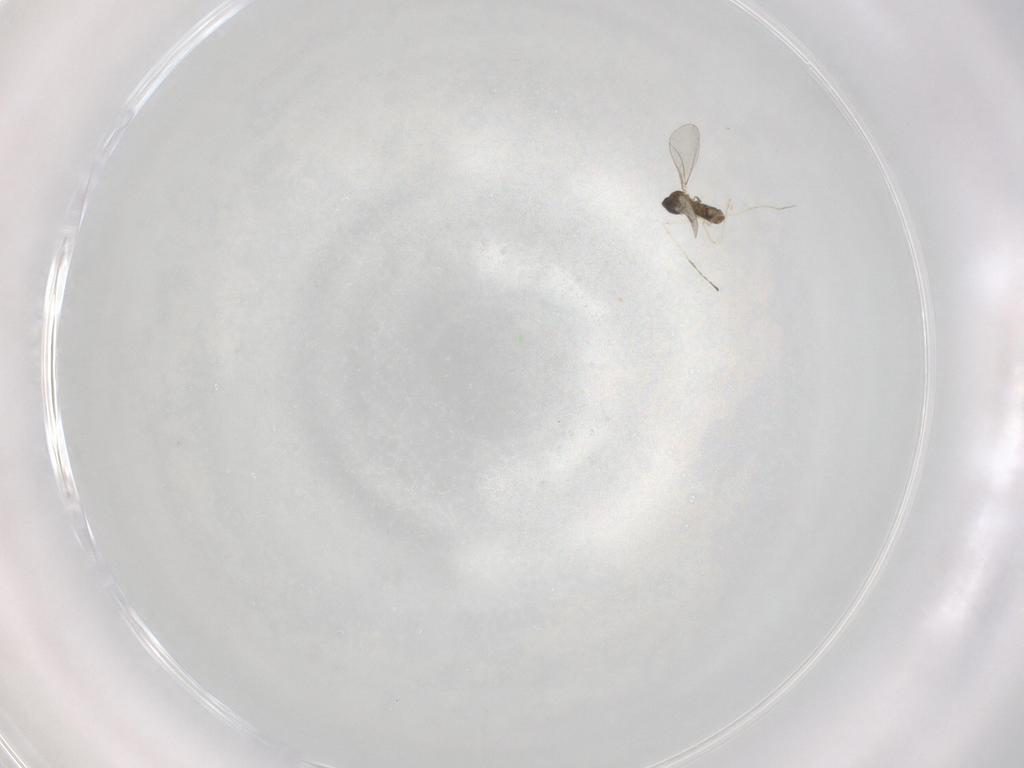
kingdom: Animalia
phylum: Arthropoda
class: Insecta
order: Diptera
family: Cecidomyiidae
